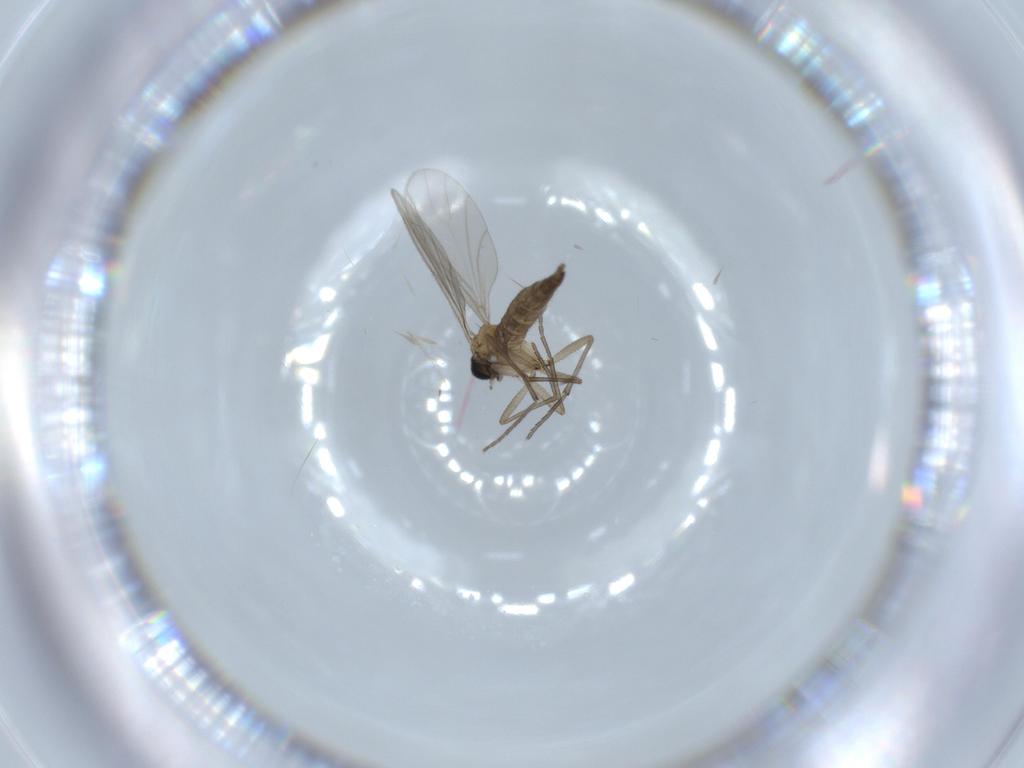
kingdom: Animalia
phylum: Arthropoda
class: Insecta
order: Diptera
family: Sciaridae
